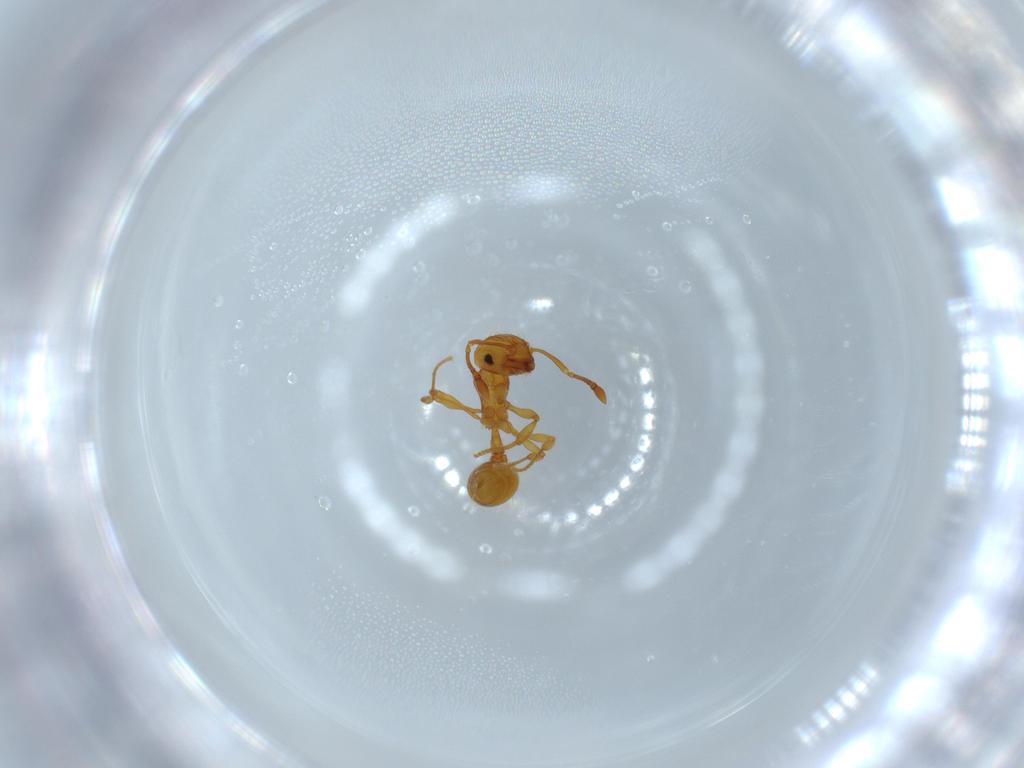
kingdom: Animalia
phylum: Arthropoda
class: Insecta
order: Hymenoptera
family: Formicidae
